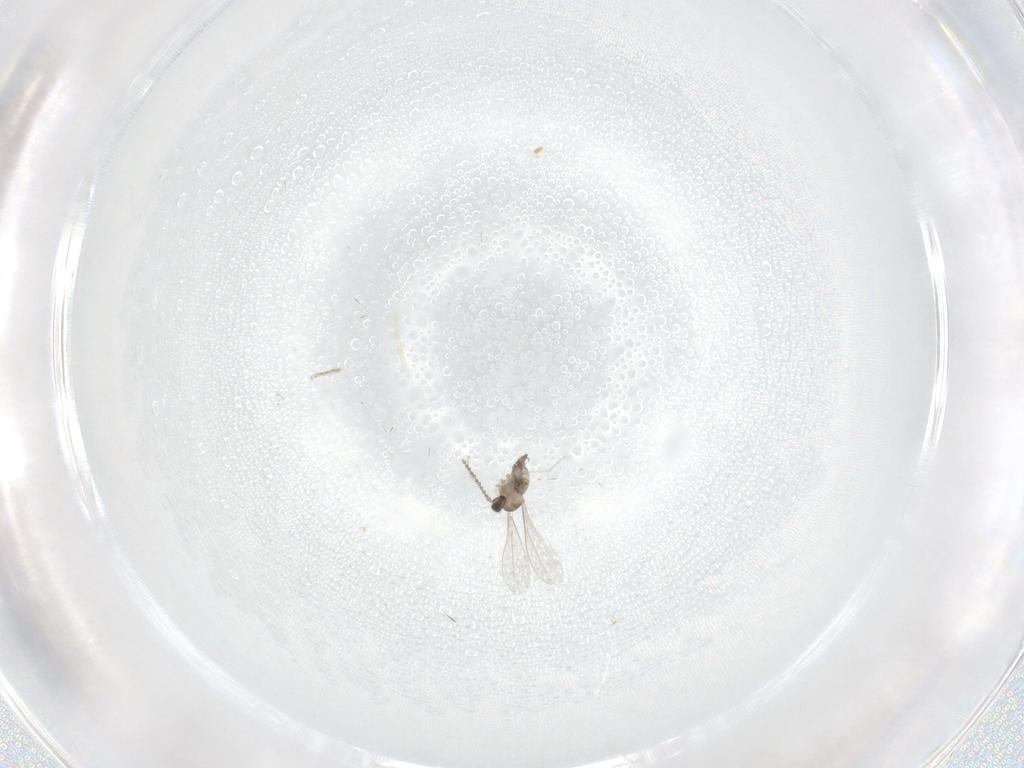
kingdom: Animalia
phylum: Arthropoda
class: Insecta
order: Diptera
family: Cecidomyiidae
